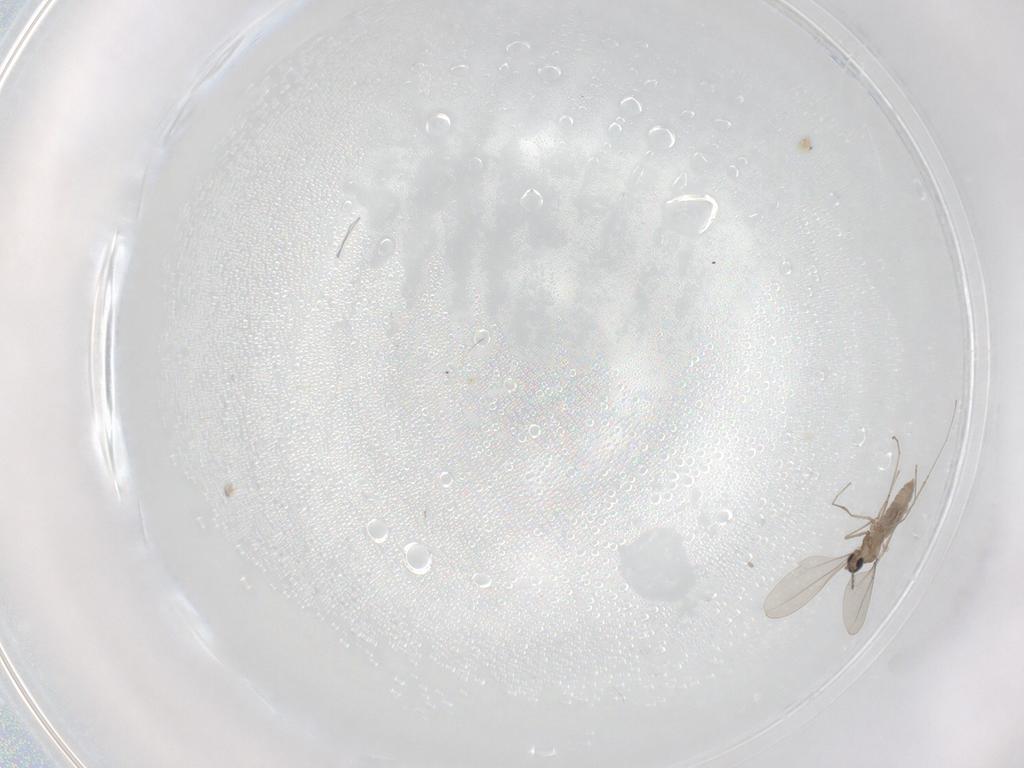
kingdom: Animalia
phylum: Arthropoda
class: Insecta
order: Diptera
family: Cecidomyiidae
